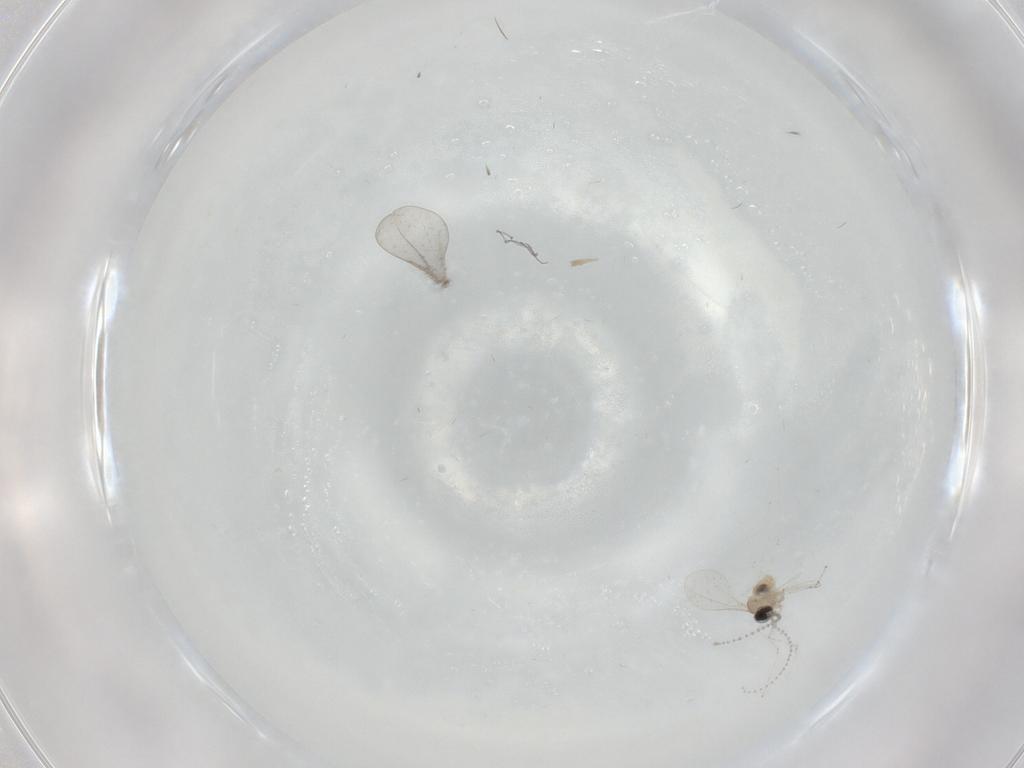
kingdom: Animalia
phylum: Arthropoda
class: Insecta
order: Diptera
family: Cecidomyiidae
